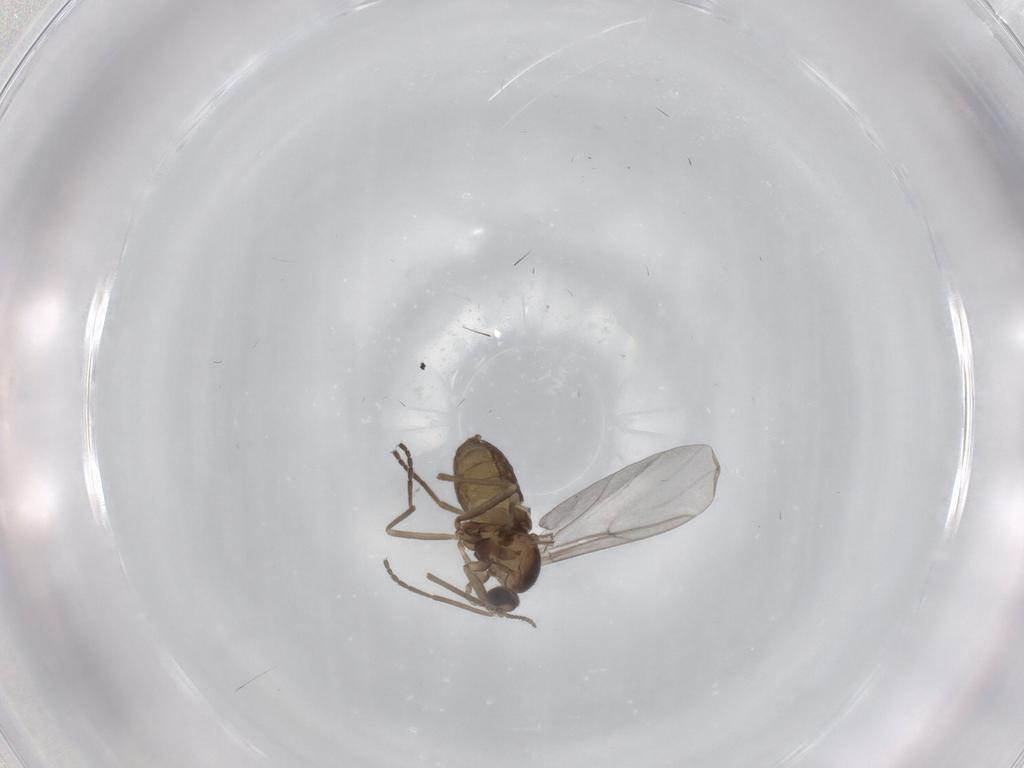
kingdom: Animalia
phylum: Arthropoda
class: Insecta
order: Diptera
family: Cecidomyiidae
